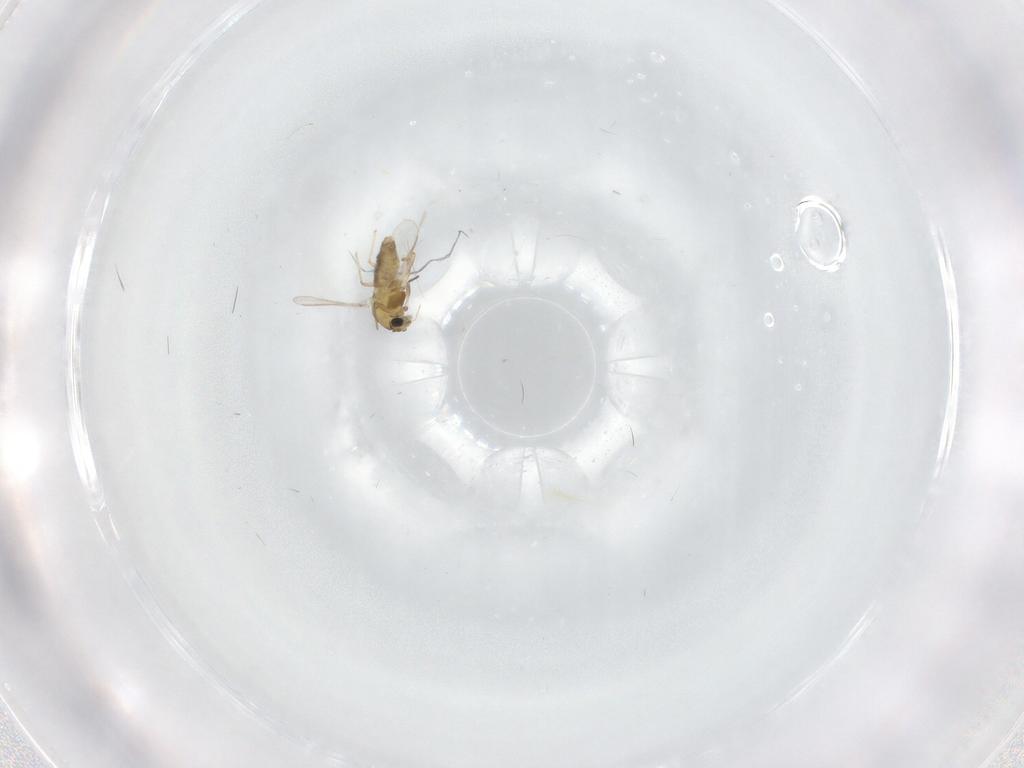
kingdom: Animalia
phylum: Arthropoda
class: Insecta
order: Diptera
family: Chironomidae
